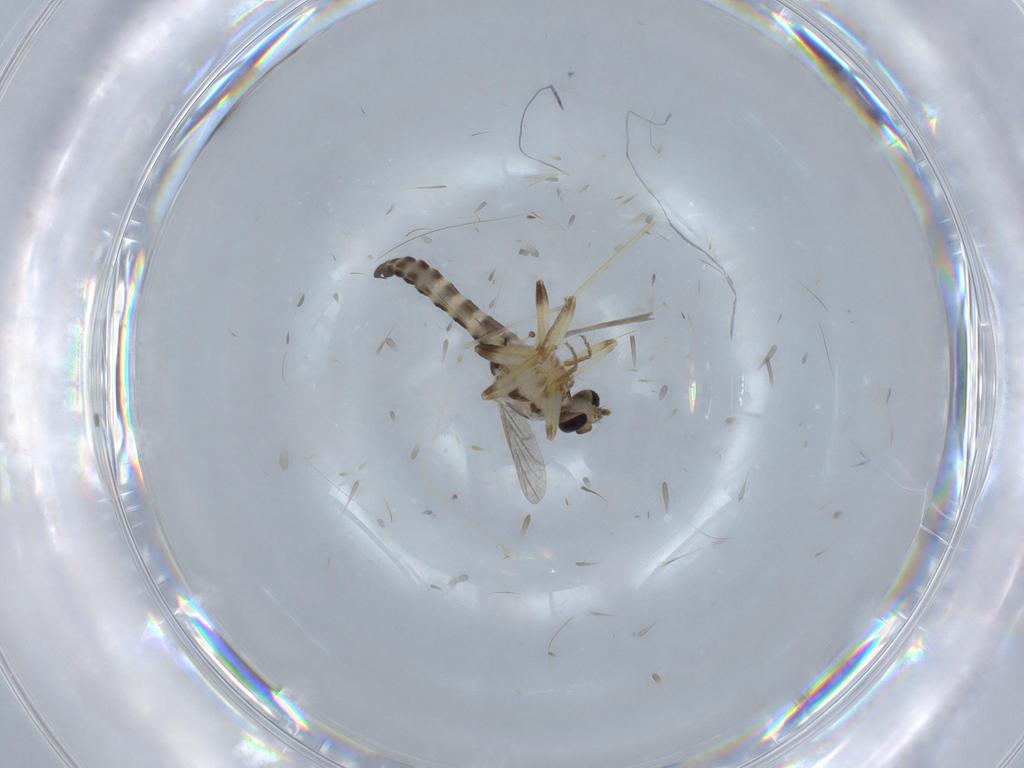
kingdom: Animalia
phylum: Arthropoda
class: Insecta
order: Diptera
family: Ceratopogonidae
